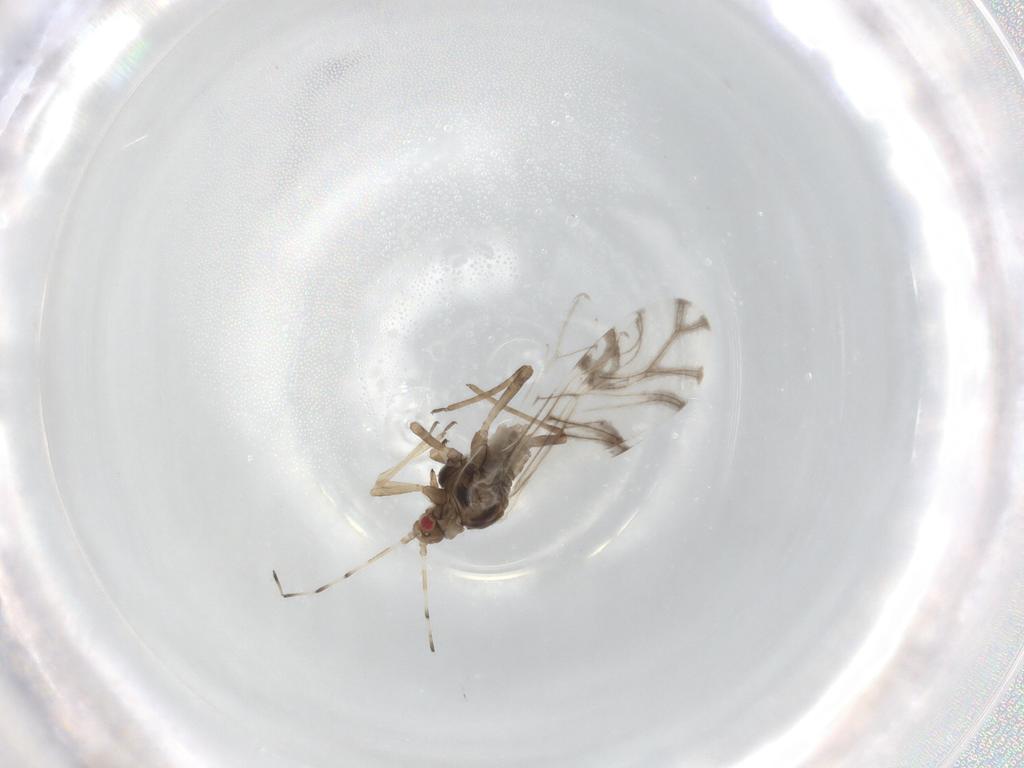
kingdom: Animalia
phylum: Arthropoda
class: Insecta
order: Hemiptera
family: Aphididae
